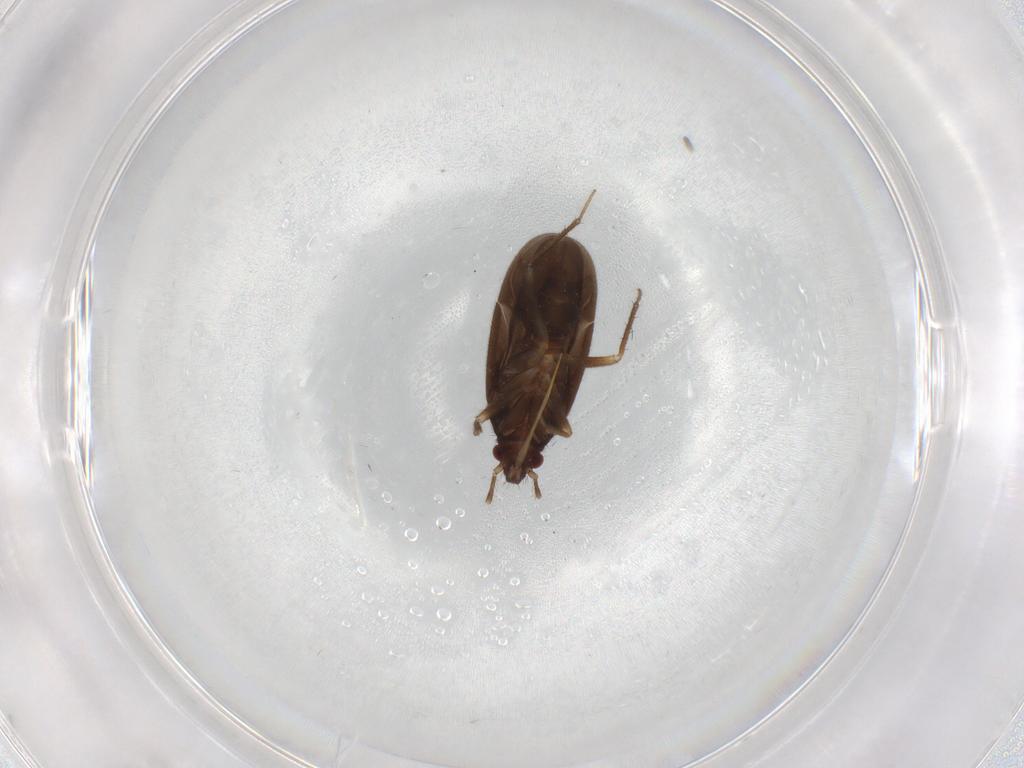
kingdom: Animalia
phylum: Arthropoda
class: Insecta
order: Hemiptera
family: Ceratocombidae
